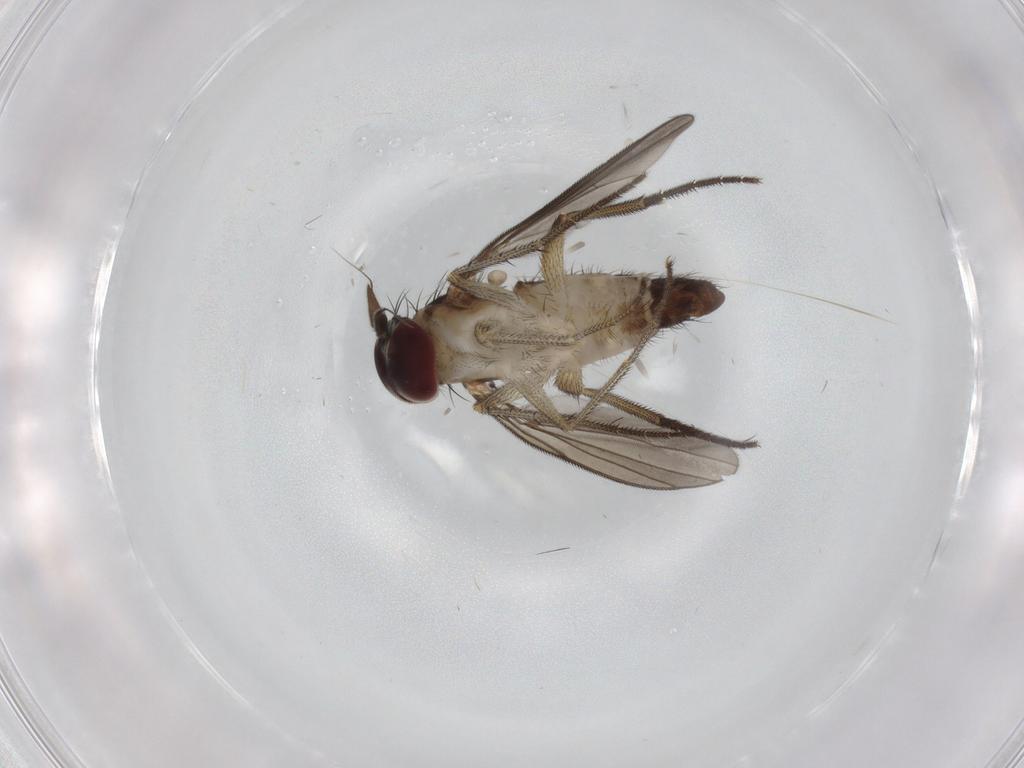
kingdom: Animalia
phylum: Arthropoda
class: Insecta
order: Diptera
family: Dolichopodidae
